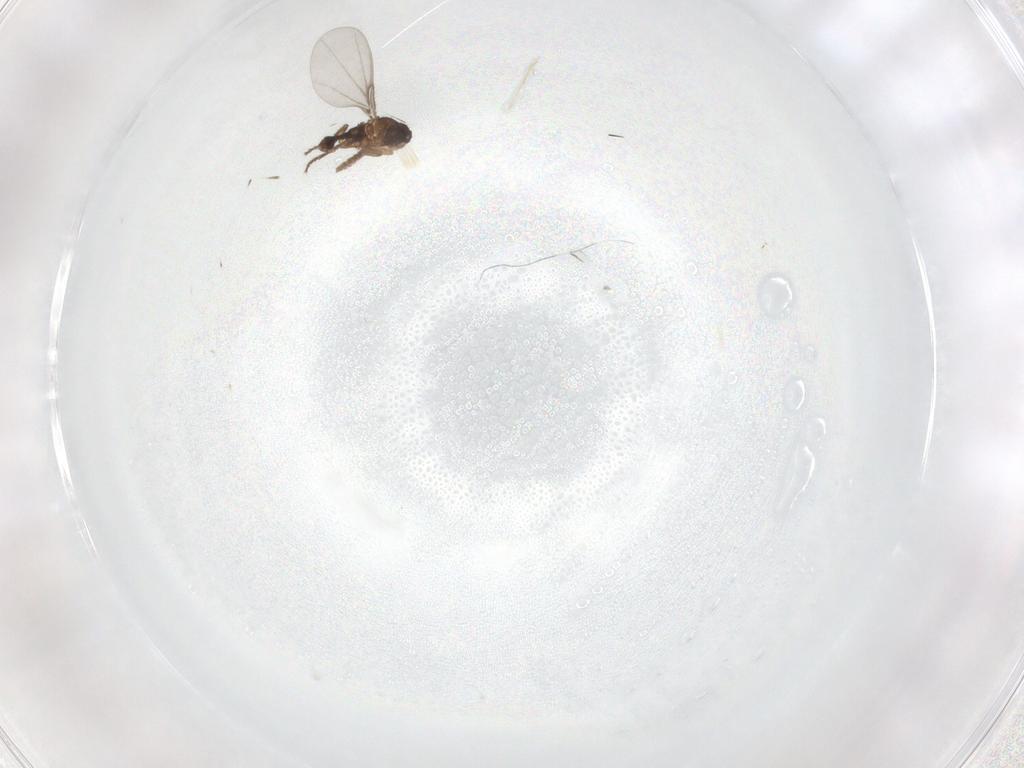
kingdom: Animalia
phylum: Arthropoda
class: Insecta
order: Diptera
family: Phoridae
